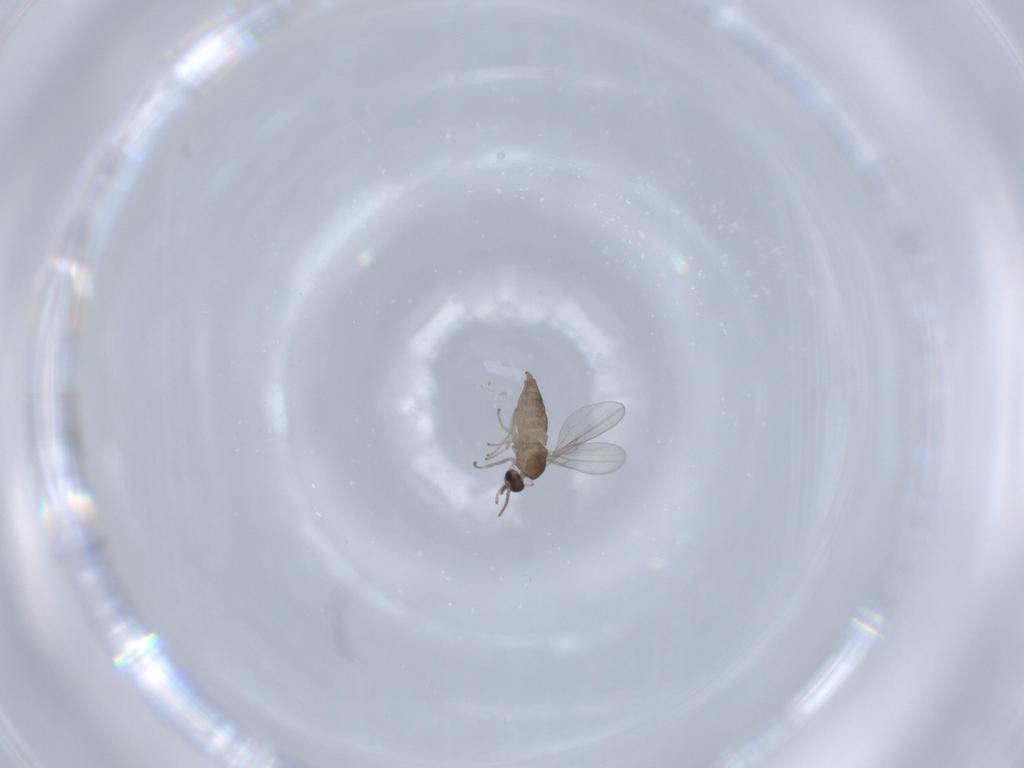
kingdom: Animalia
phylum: Arthropoda
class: Insecta
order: Diptera
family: Cecidomyiidae
